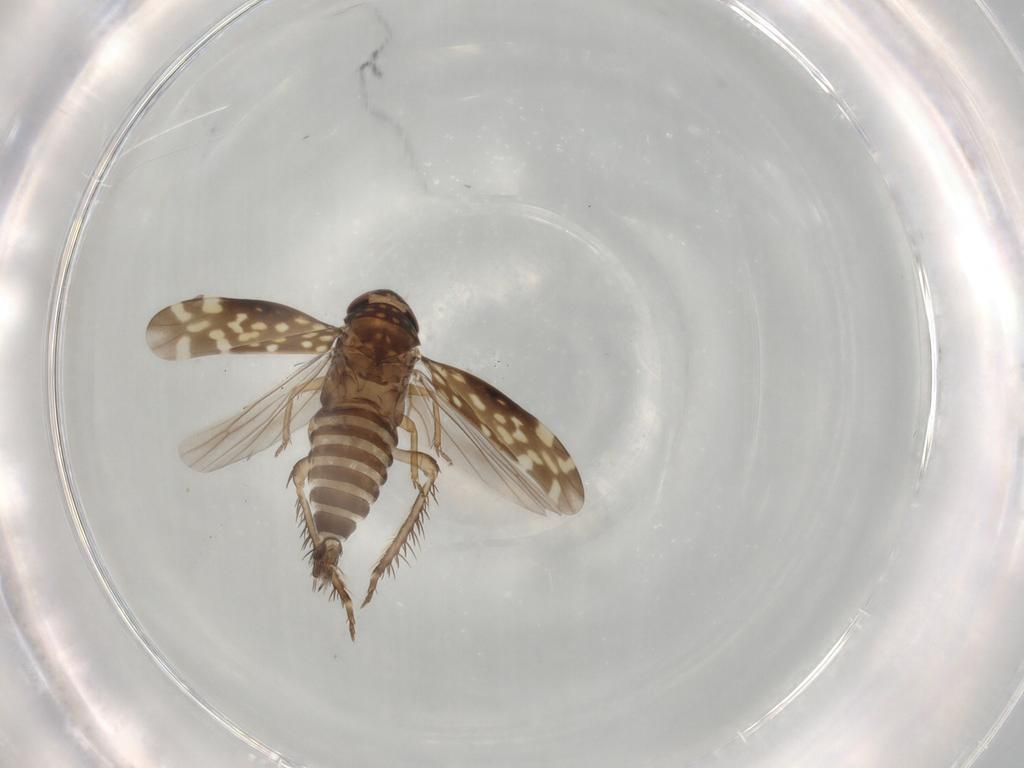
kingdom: Animalia
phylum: Arthropoda
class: Insecta
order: Hemiptera
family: Cicadellidae
